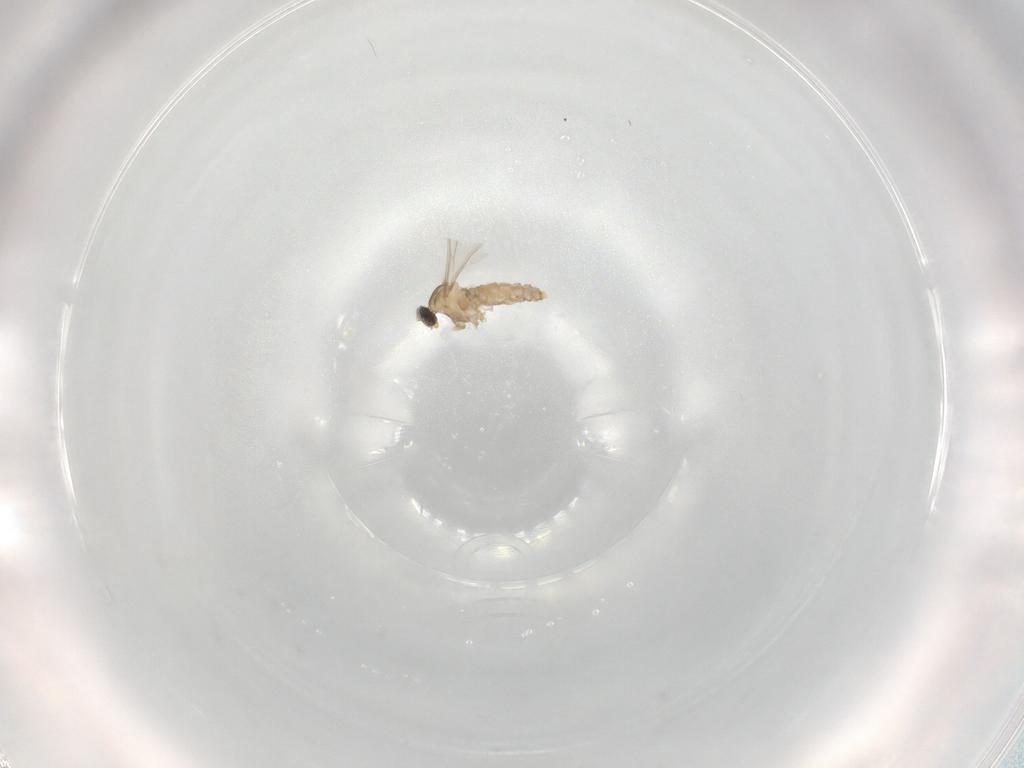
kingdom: Animalia
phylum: Arthropoda
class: Insecta
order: Diptera
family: Cecidomyiidae
